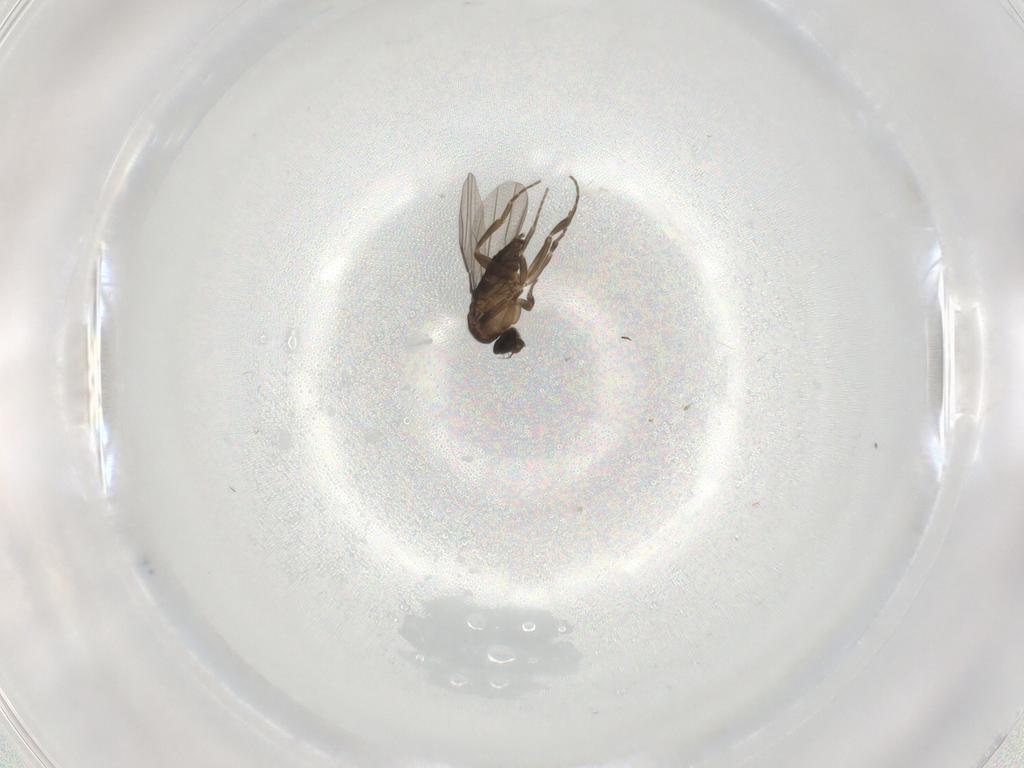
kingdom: Animalia
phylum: Arthropoda
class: Insecta
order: Diptera
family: Phoridae
